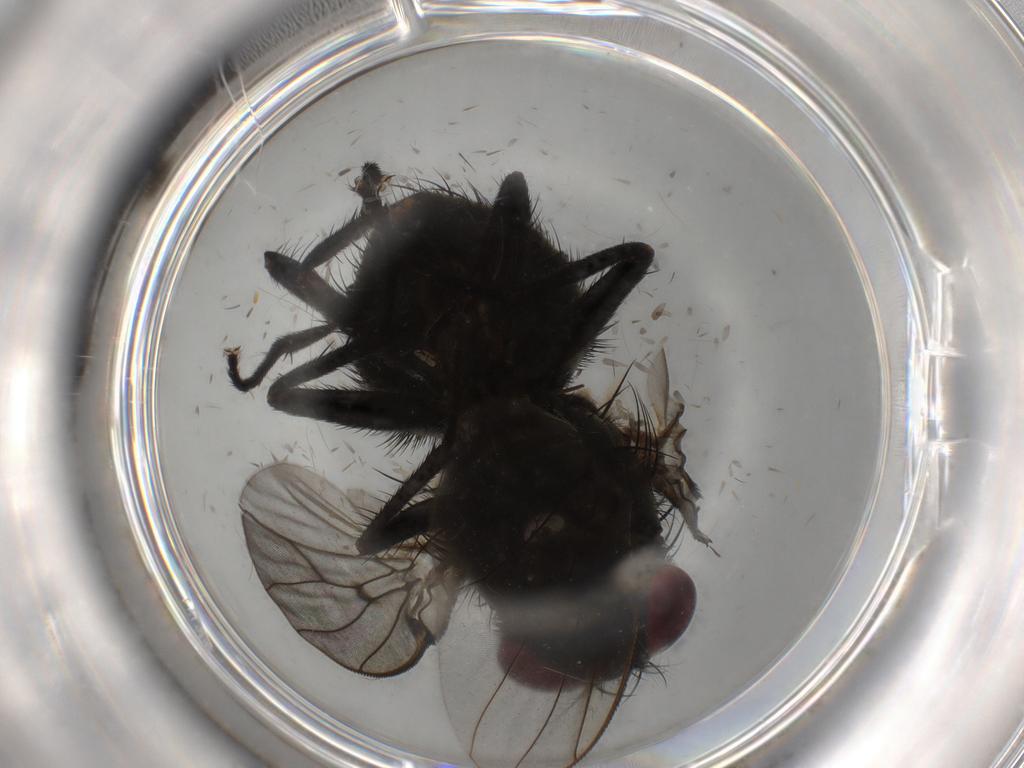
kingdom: Animalia
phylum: Arthropoda
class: Insecta
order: Diptera
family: Muscidae
